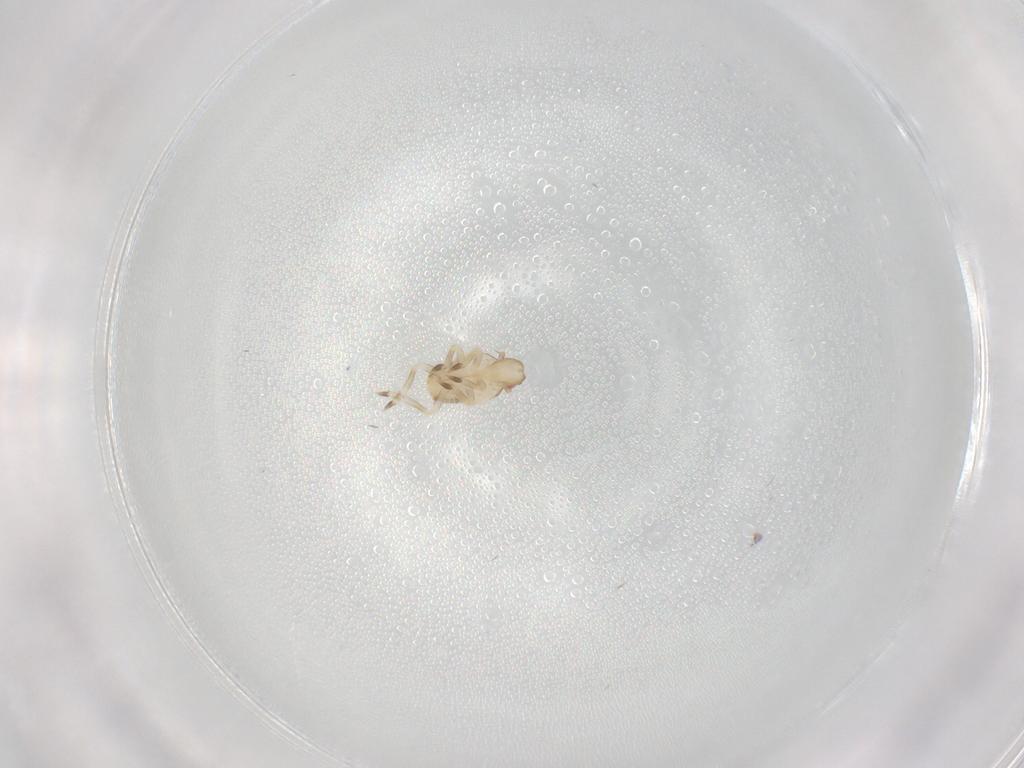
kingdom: Animalia
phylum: Arthropoda
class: Insecta
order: Hemiptera
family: Flatidae
